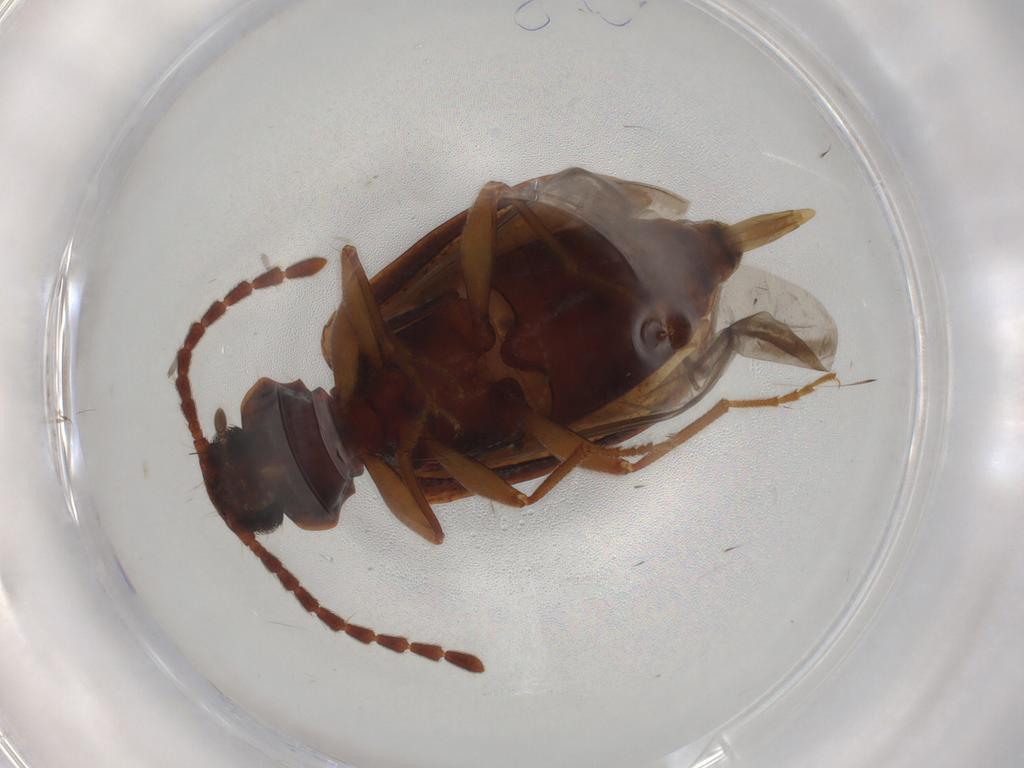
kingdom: Animalia
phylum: Arthropoda
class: Insecta
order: Coleoptera
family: Tenebrionidae
